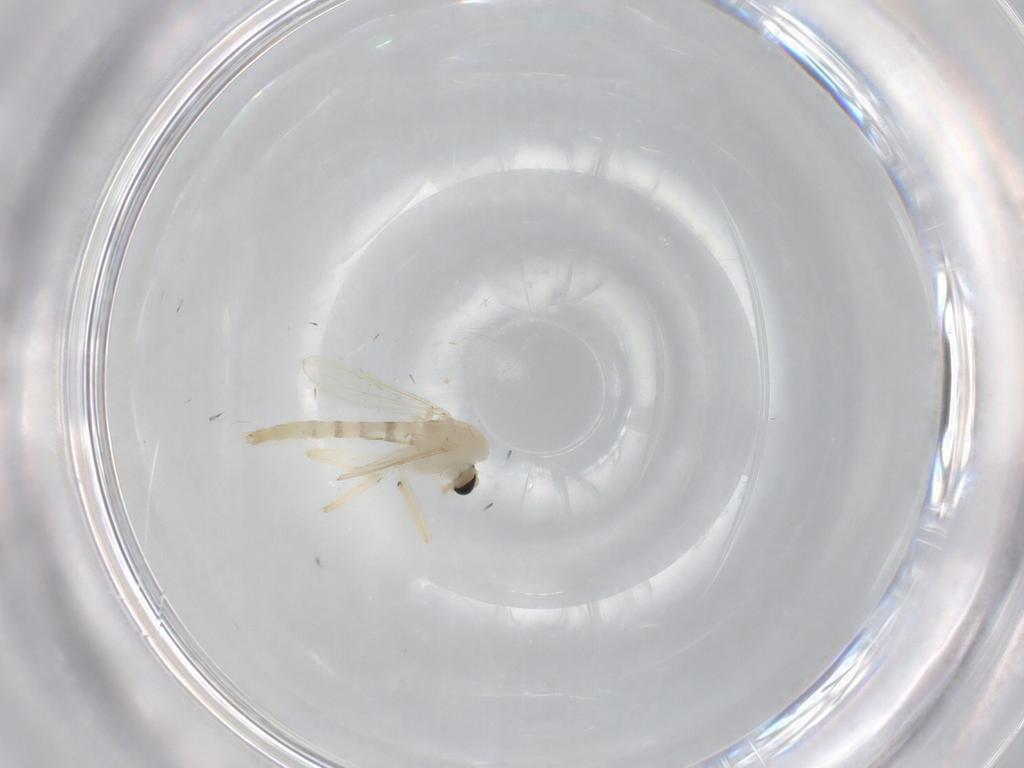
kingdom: Animalia
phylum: Arthropoda
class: Insecta
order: Diptera
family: Chironomidae
